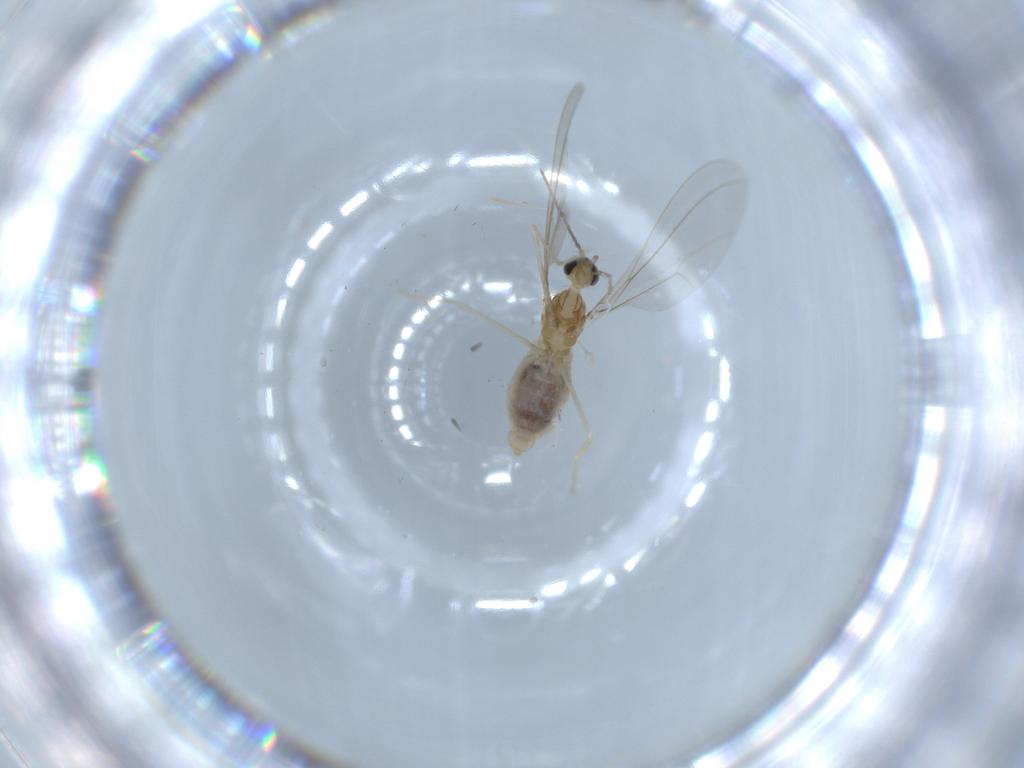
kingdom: Animalia
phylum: Arthropoda
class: Insecta
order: Diptera
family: Cecidomyiidae
